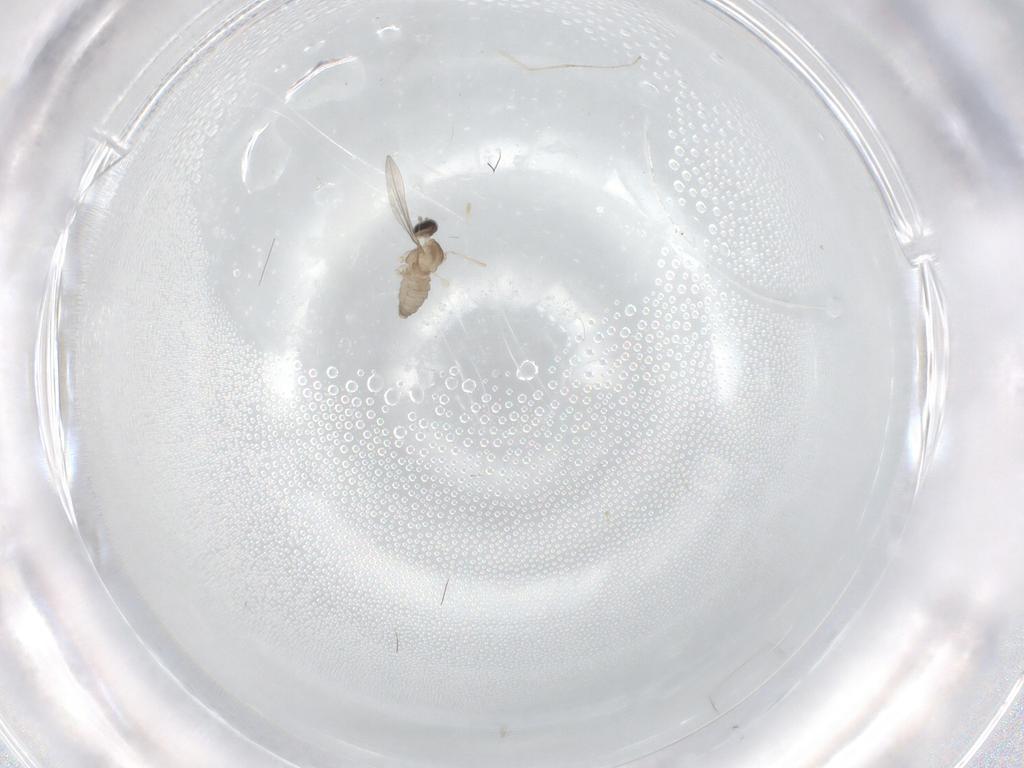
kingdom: Animalia
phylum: Arthropoda
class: Insecta
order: Diptera
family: Cecidomyiidae
